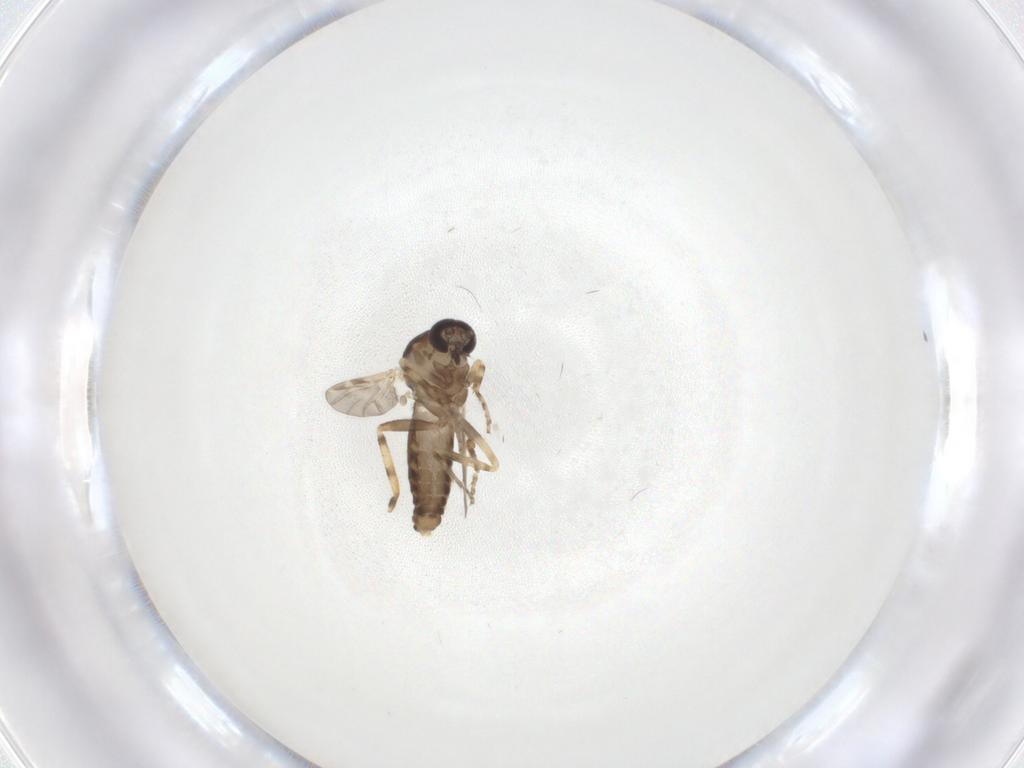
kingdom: Animalia
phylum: Arthropoda
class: Insecta
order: Diptera
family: Ceratopogonidae
